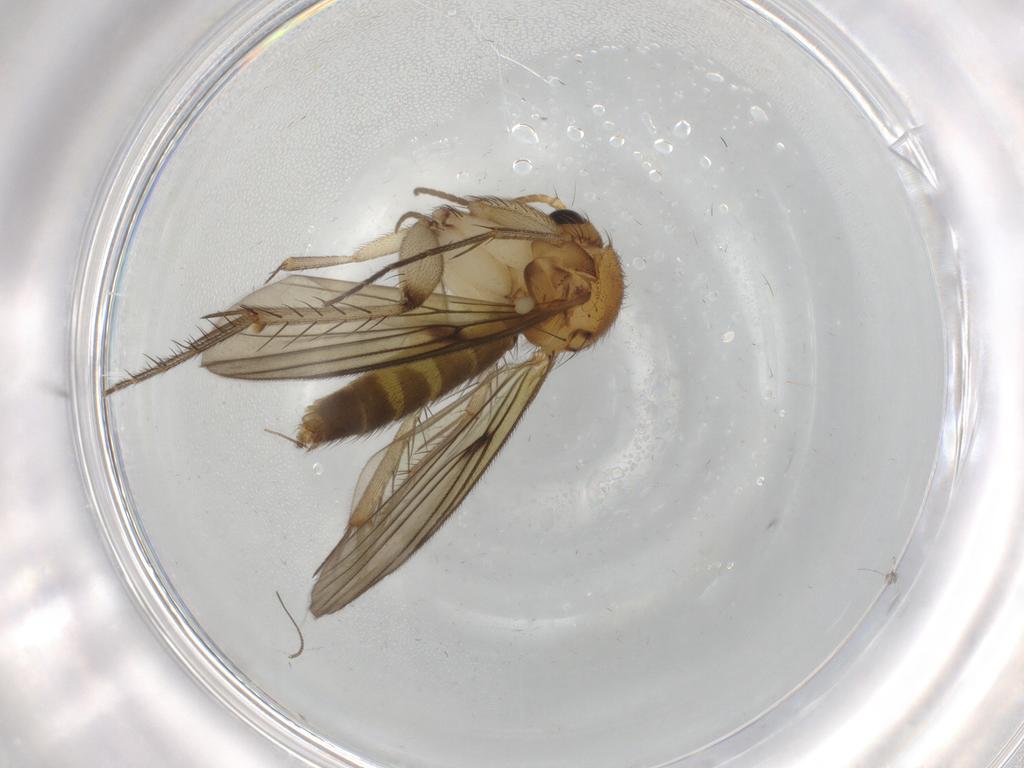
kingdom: Animalia
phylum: Arthropoda
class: Insecta
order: Diptera
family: Mycetophilidae
